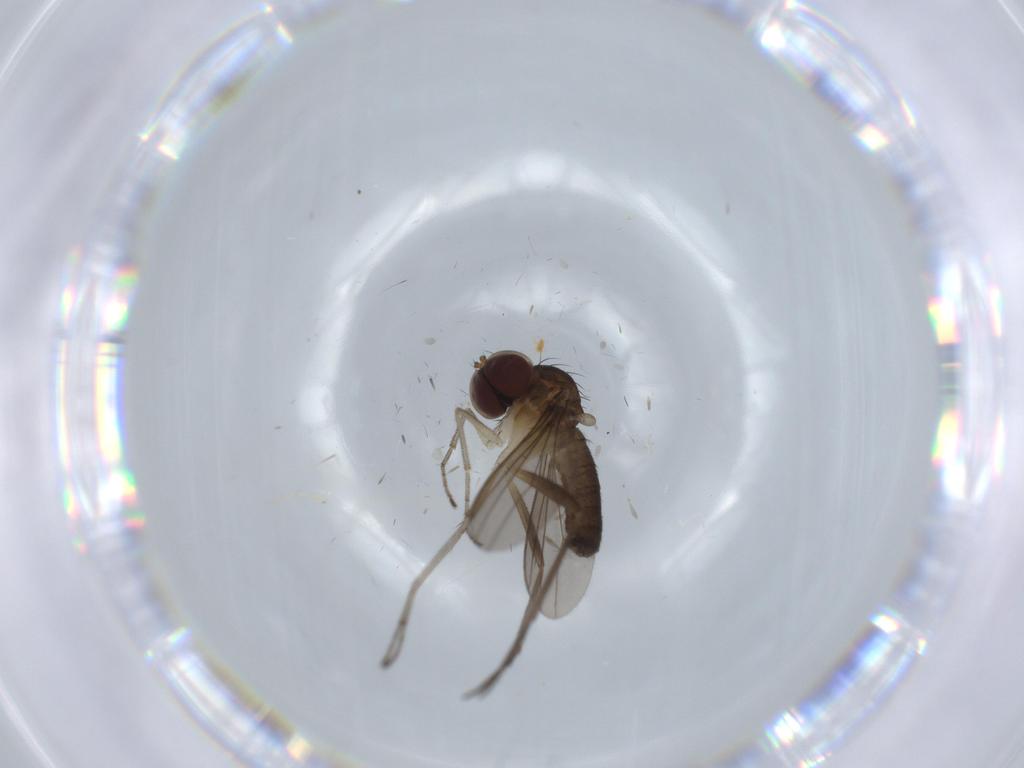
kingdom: Animalia
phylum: Arthropoda
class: Insecta
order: Diptera
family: Dolichopodidae
